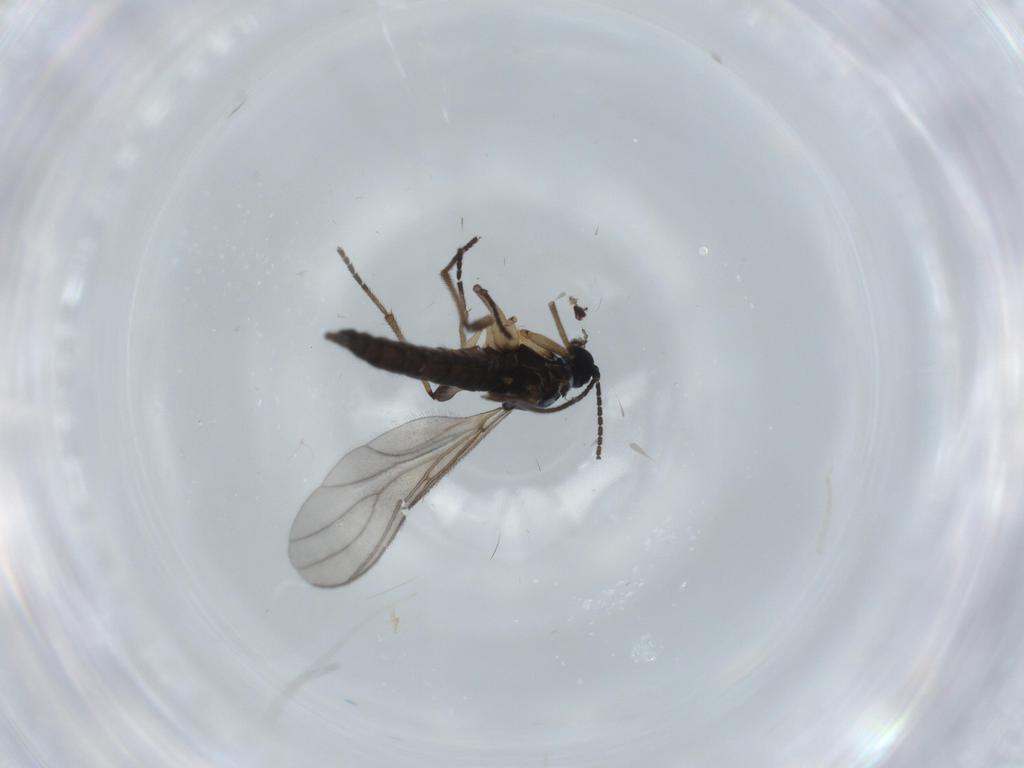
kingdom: Animalia
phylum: Arthropoda
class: Insecta
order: Diptera
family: Sciaridae
